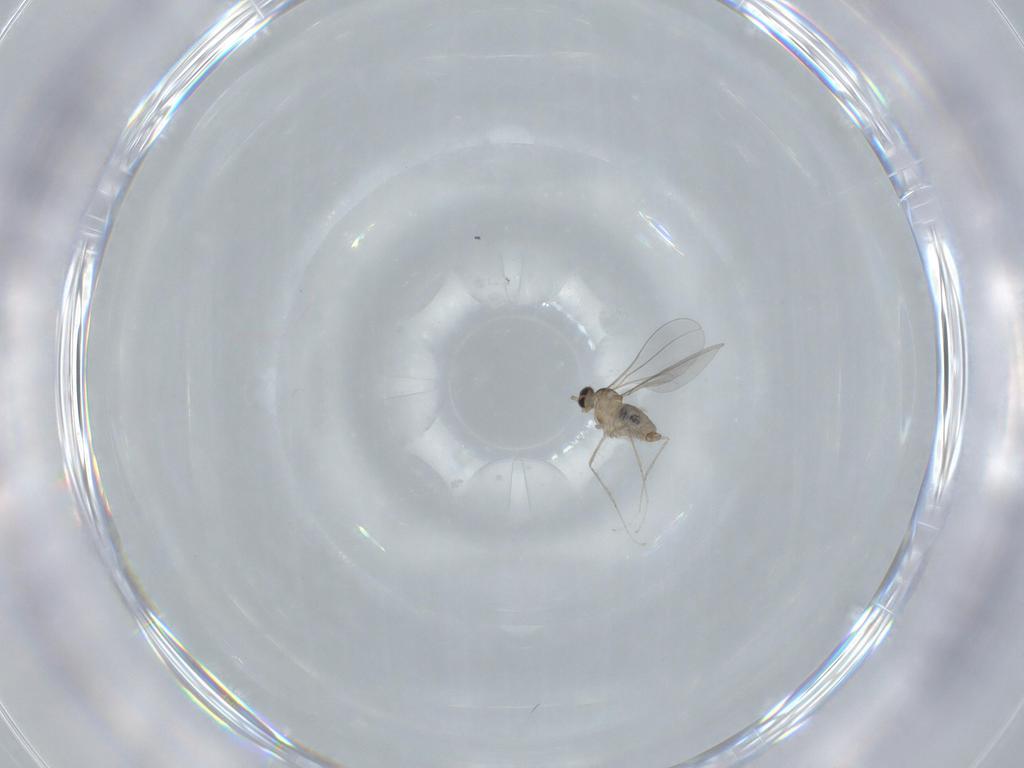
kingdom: Animalia
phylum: Arthropoda
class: Insecta
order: Diptera
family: Cecidomyiidae
